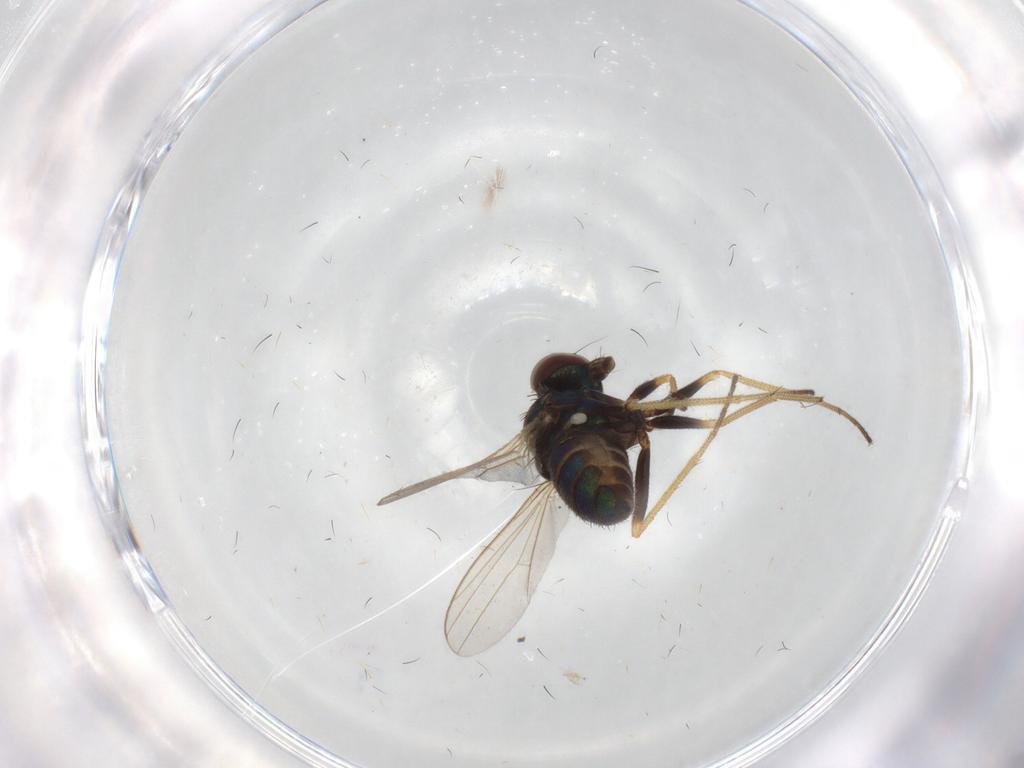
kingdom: Animalia
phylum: Arthropoda
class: Insecta
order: Diptera
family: Dolichopodidae
